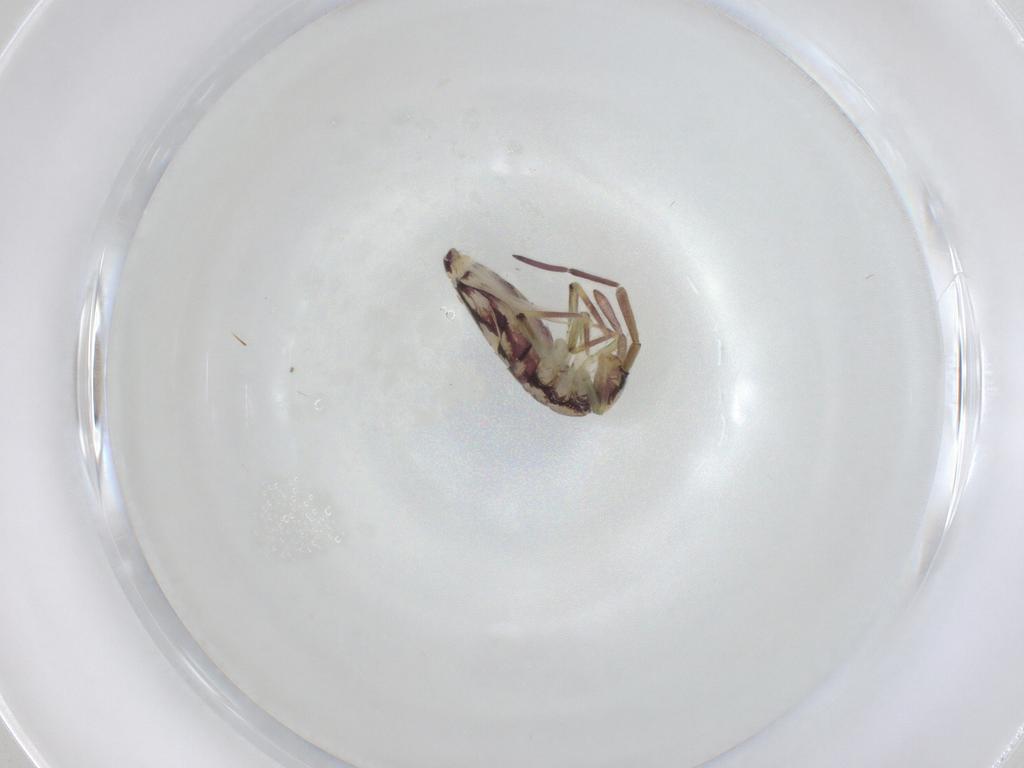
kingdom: Animalia
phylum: Arthropoda
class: Collembola
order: Entomobryomorpha
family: Entomobryidae
